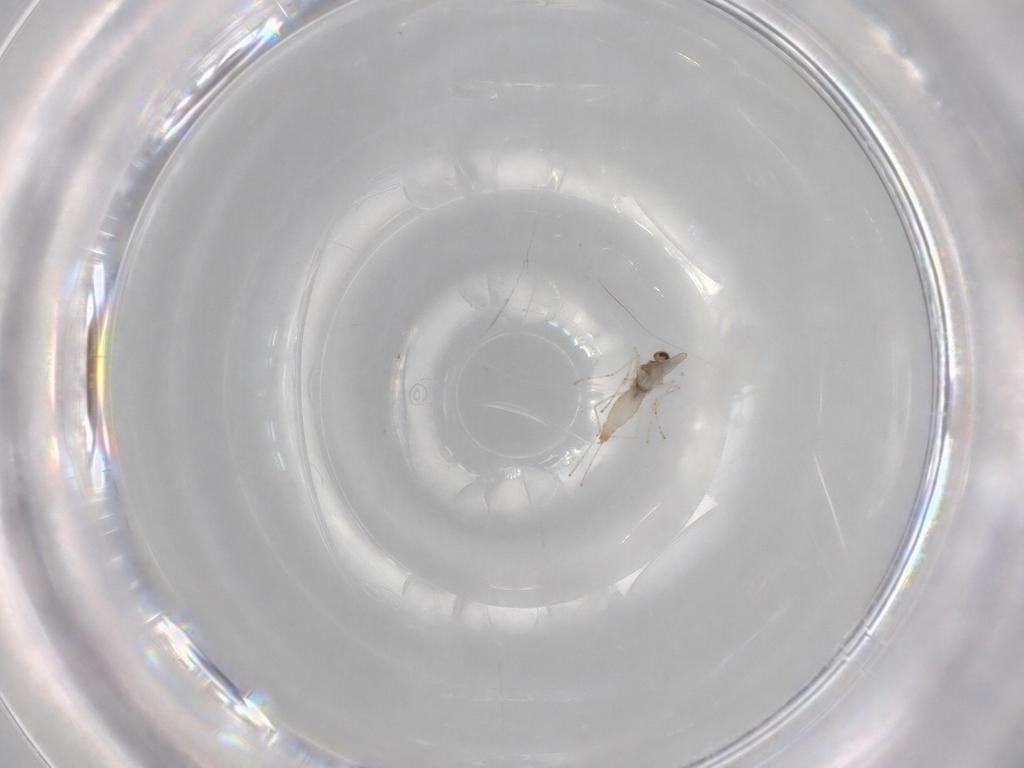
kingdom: Animalia
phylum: Arthropoda
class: Insecta
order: Diptera
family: Cecidomyiidae
